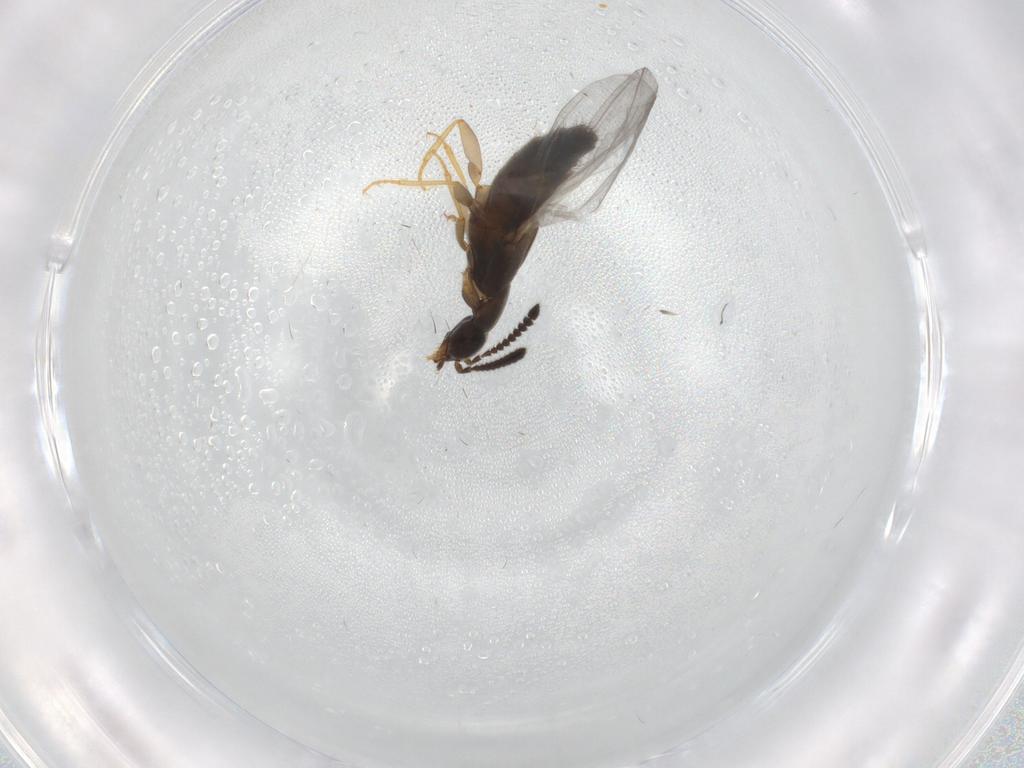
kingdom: Animalia
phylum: Arthropoda
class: Insecta
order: Coleoptera
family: Staphylinidae
